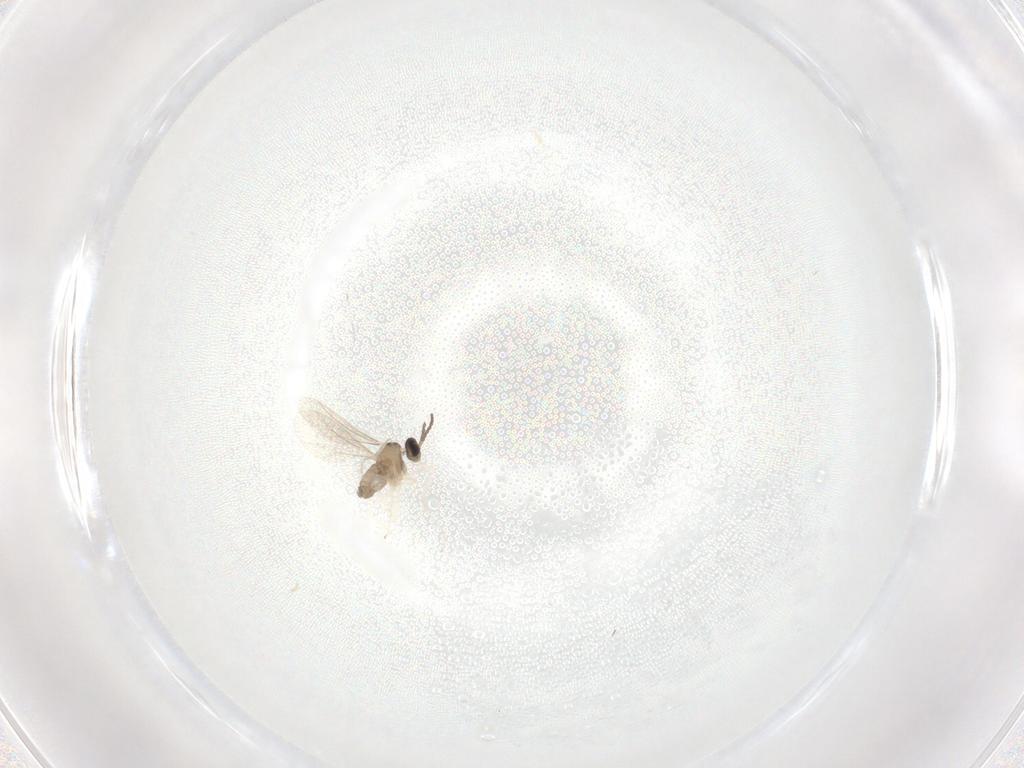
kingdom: Animalia
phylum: Arthropoda
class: Insecta
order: Diptera
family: Cecidomyiidae
